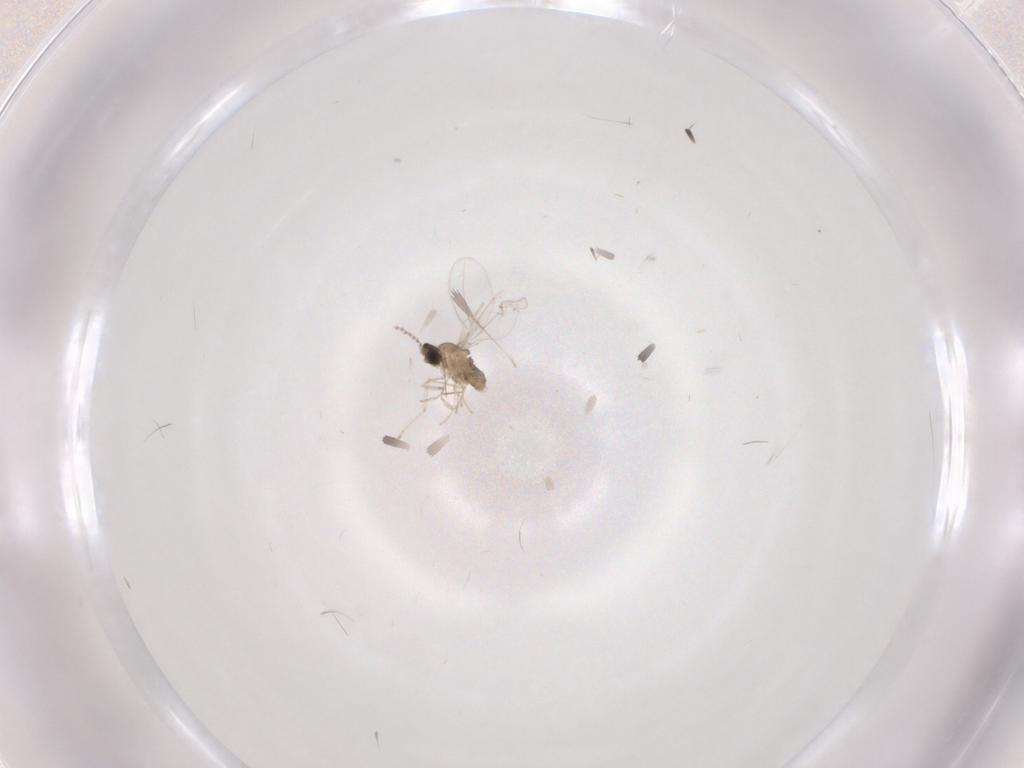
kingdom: Animalia
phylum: Arthropoda
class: Insecta
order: Diptera
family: Cecidomyiidae
